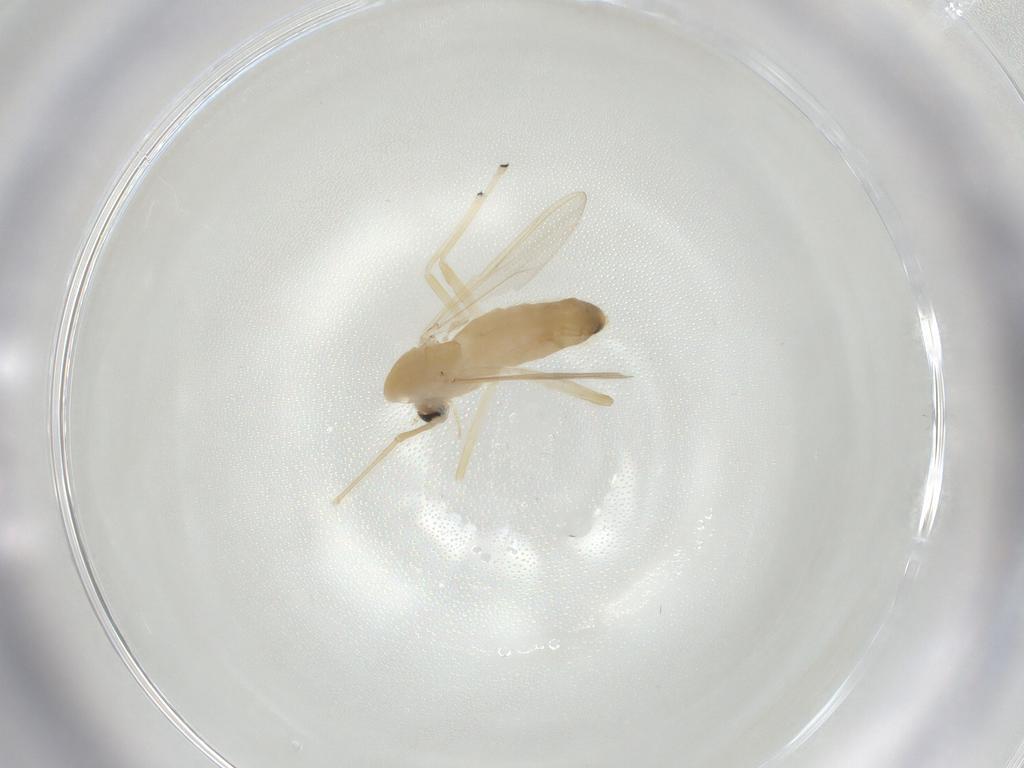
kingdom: Animalia
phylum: Arthropoda
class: Insecta
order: Diptera
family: Chironomidae
